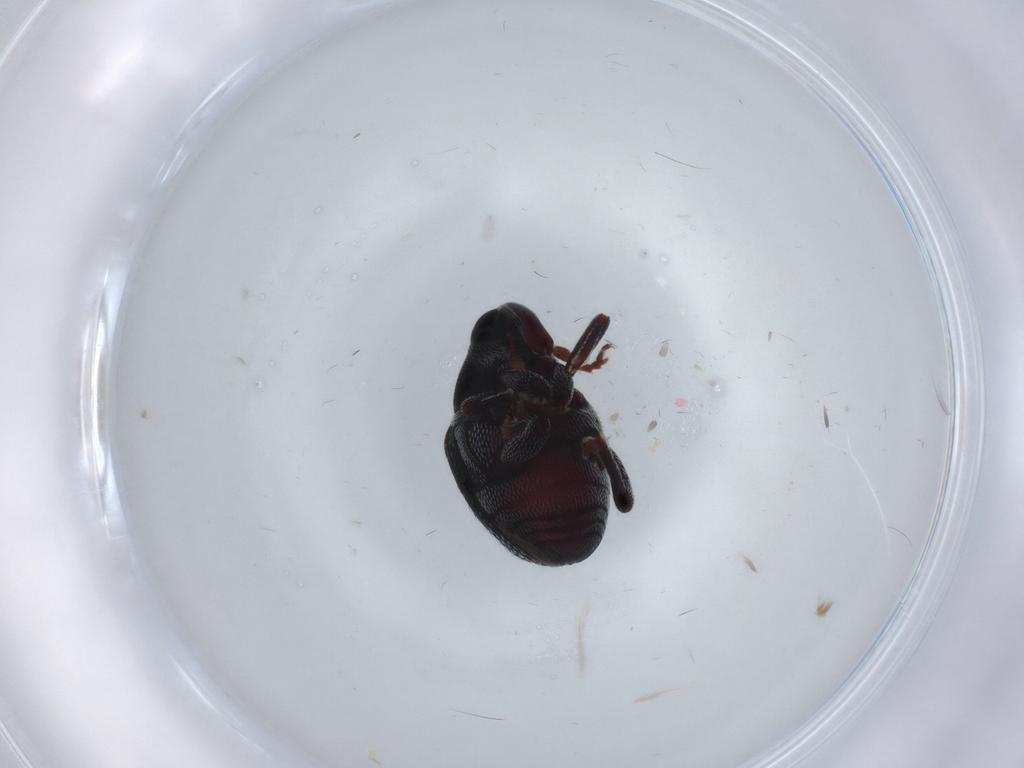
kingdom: Animalia
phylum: Arthropoda
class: Insecta
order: Coleoptera
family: Curculionidae
